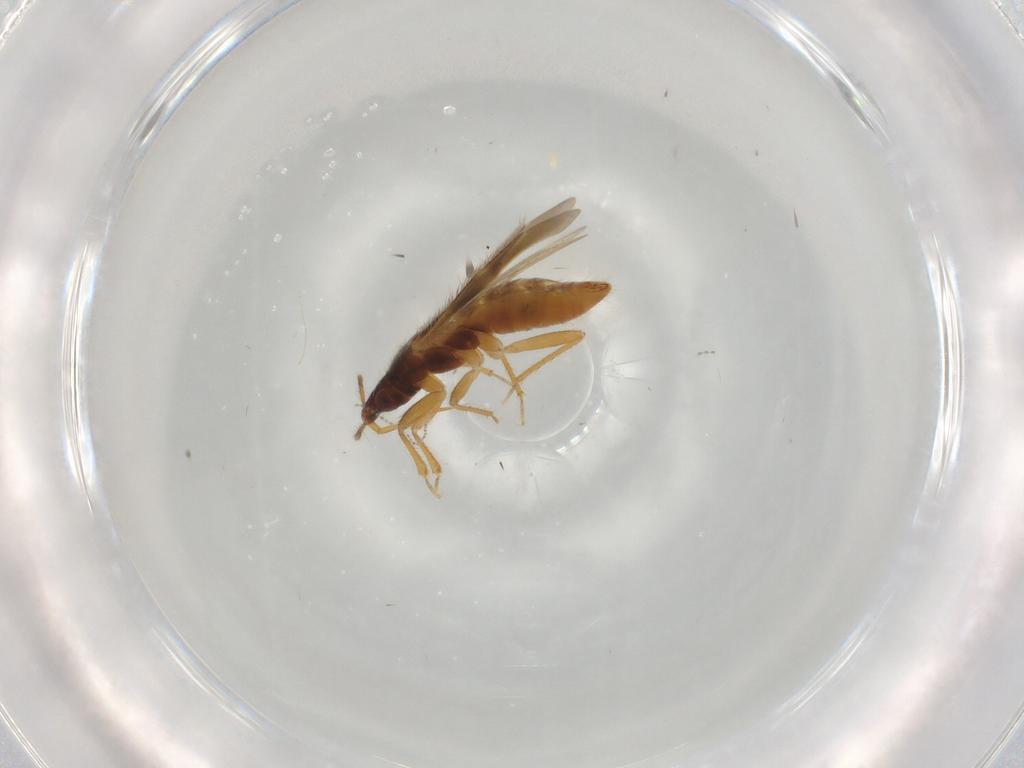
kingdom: Animalia
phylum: Arthropoda
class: Insecta
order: Hemiptera
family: Lasiochilidae
